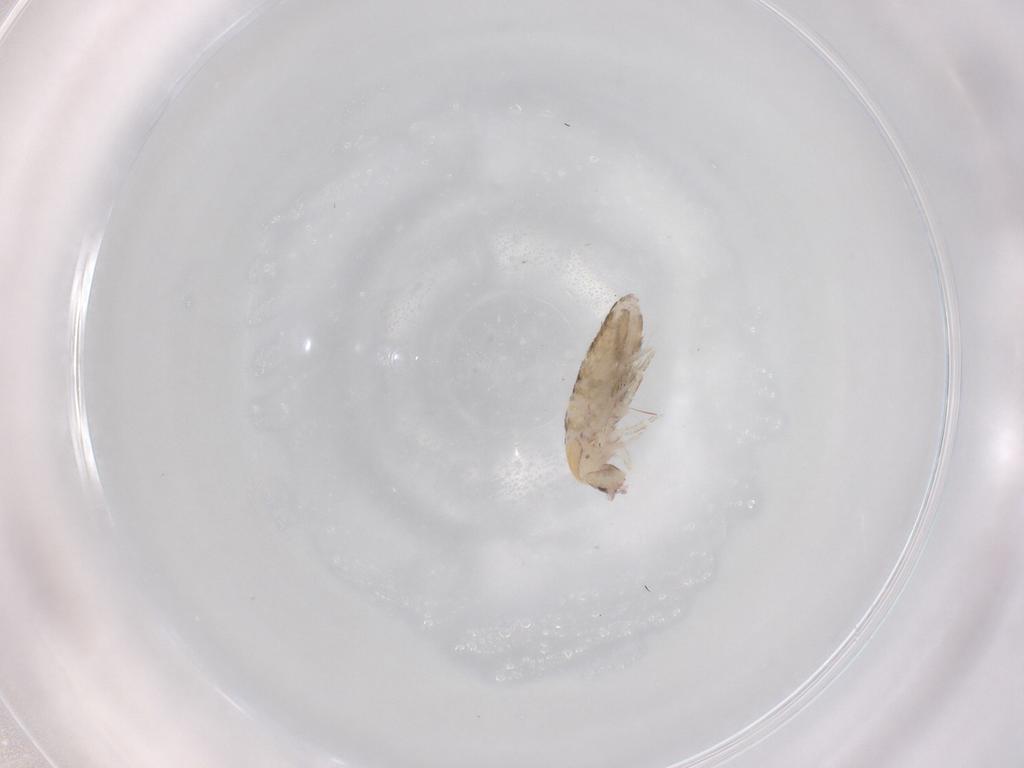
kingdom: Animalia
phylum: Arthropoda
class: Collembola
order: Entomobryomorpha
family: Entomobryidae
